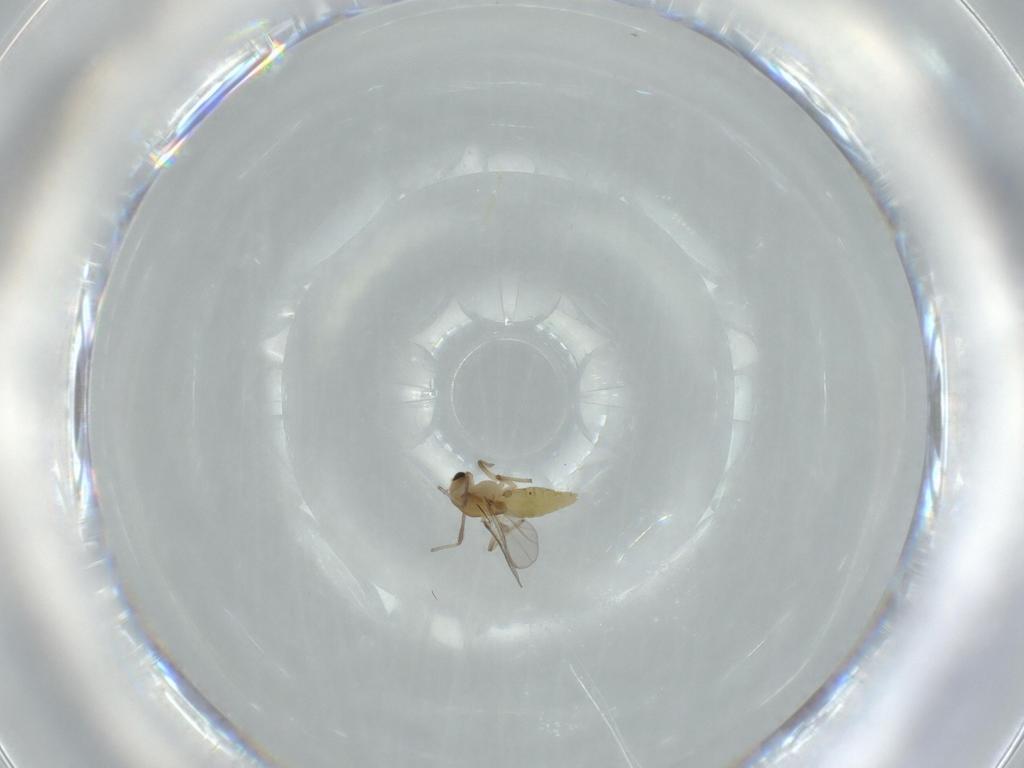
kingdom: Animalia
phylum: Arthropoda
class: Insecta
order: Diptera
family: Chironomidae
